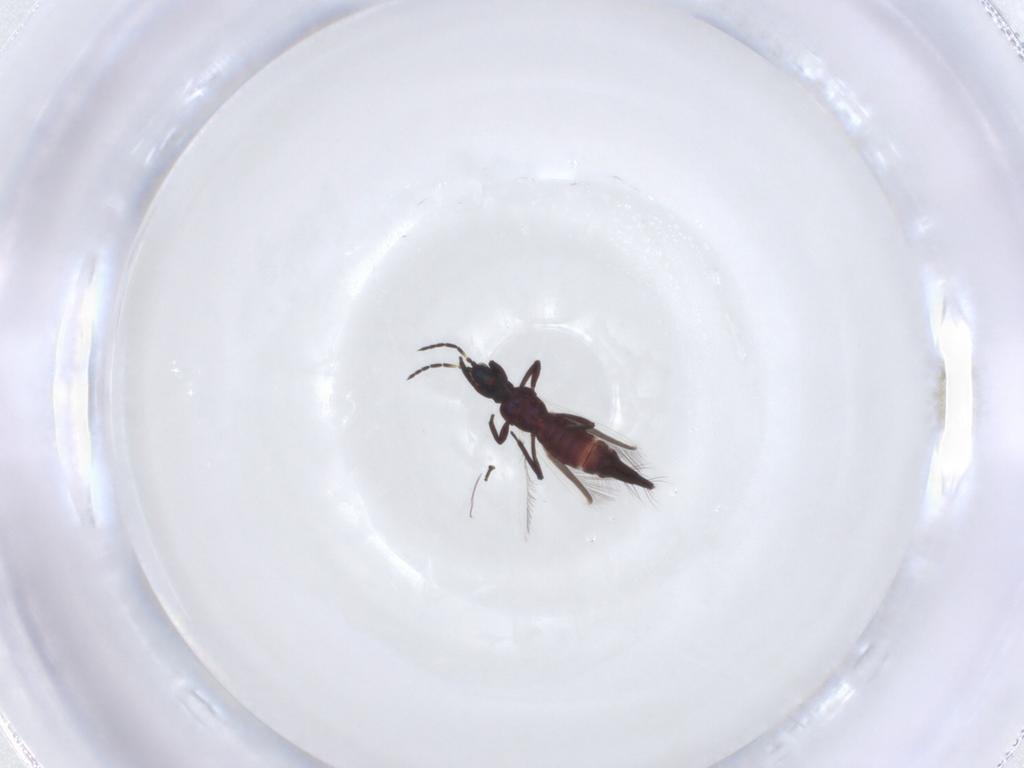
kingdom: Animalia
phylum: Arthropoda
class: Insecta
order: Thysanoptera
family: Aeolothripidae
